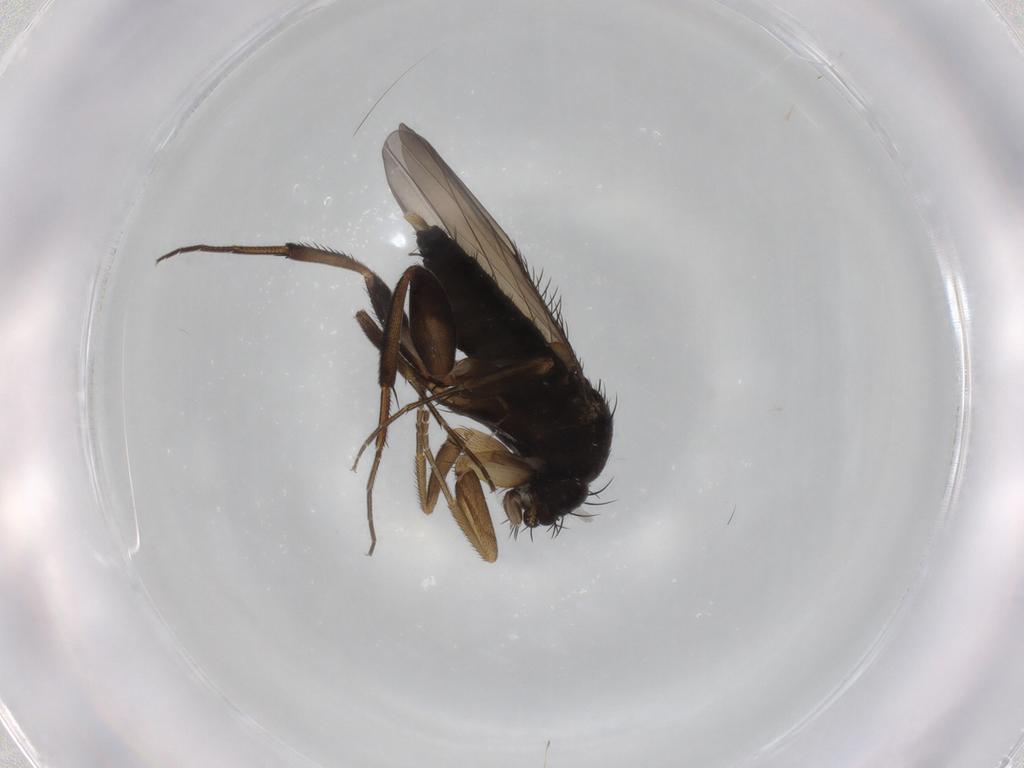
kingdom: Animalia
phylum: Arthropoda
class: Insecta
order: Diptera
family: Phoridae
